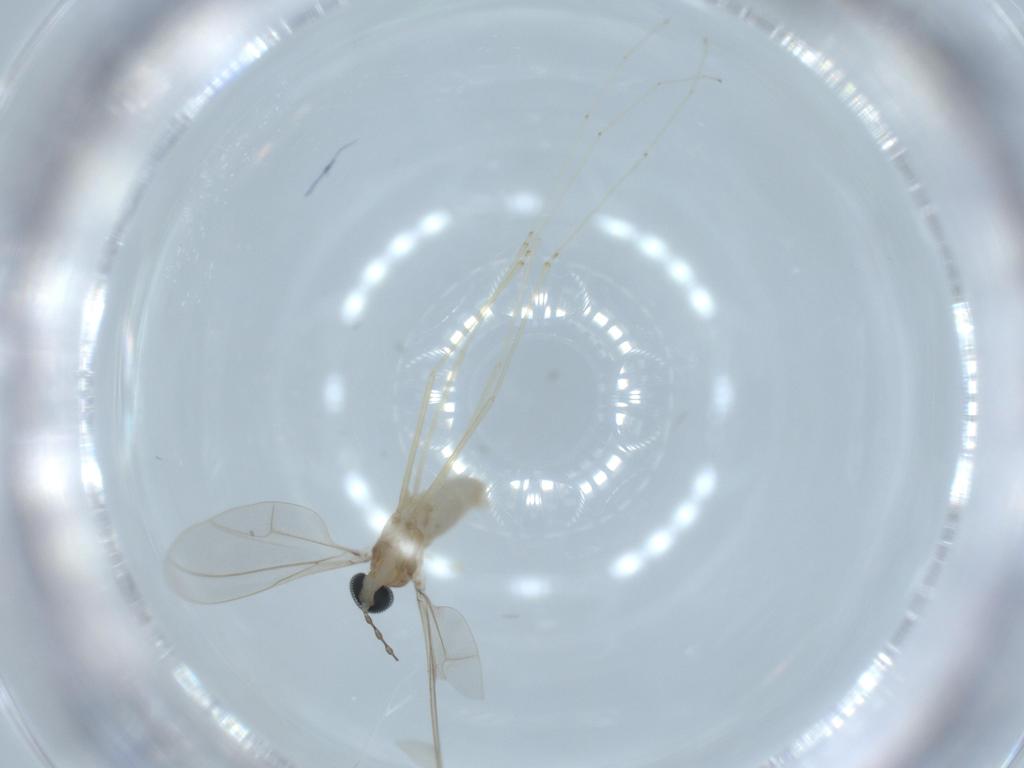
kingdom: Animalia
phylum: Arthropoda
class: Insecta
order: Diptera
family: Cecidomyiidae
